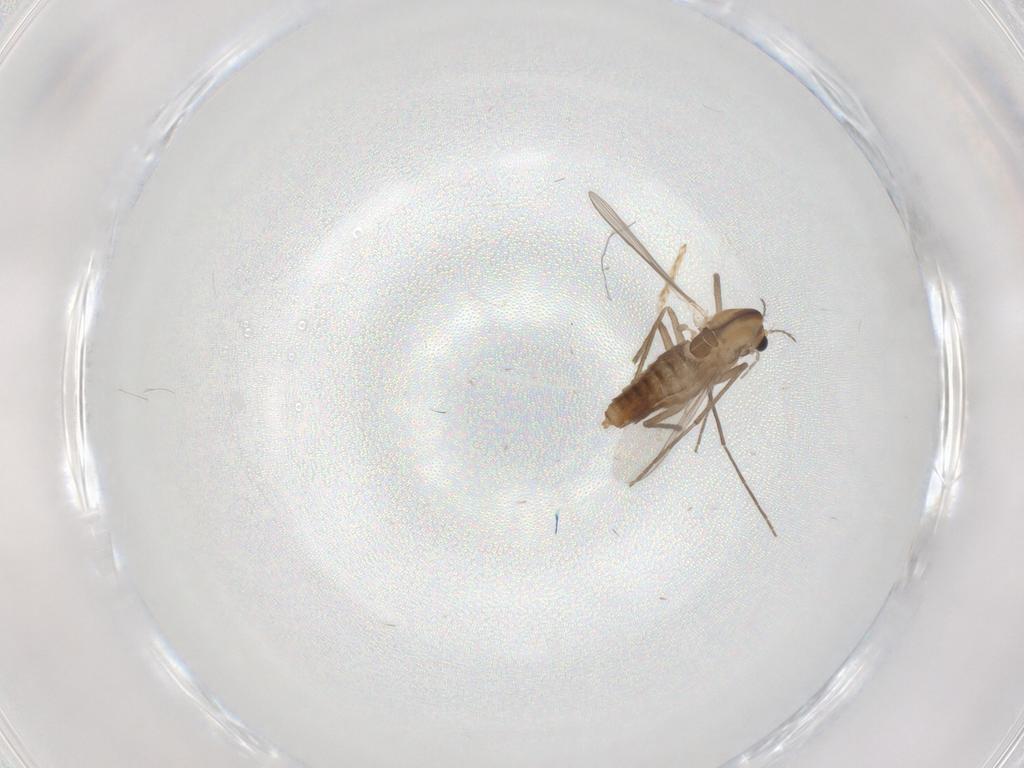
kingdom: Animalia
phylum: Arthropoda
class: Insecta
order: Diptera
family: Chironomidae
